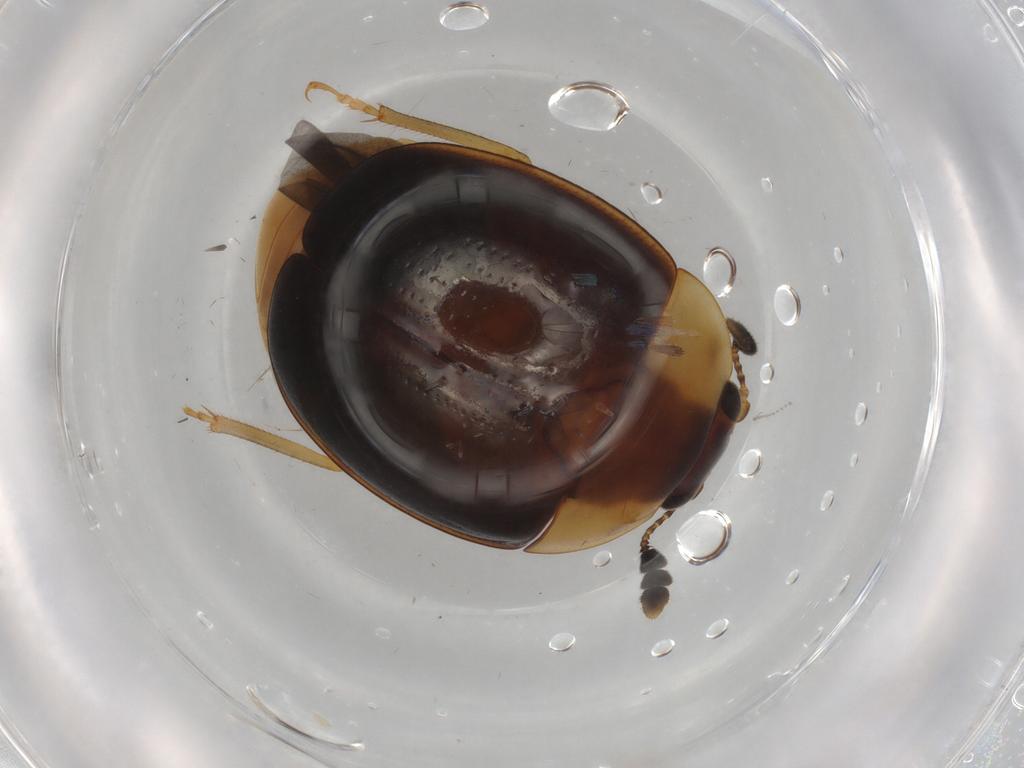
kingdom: Animalia
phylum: Arthropoda
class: Insecta
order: Coleoptera
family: Nitidulidae
